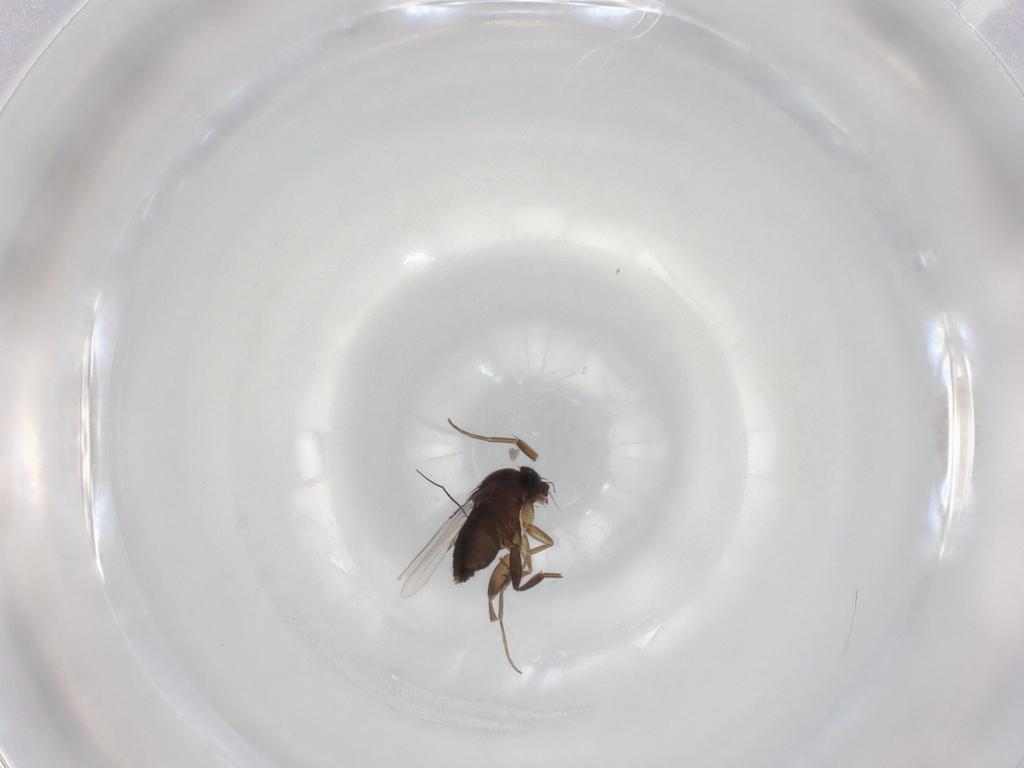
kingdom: Animalia
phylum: Arthropoda
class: Insecta
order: Diptera
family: Phoridae
